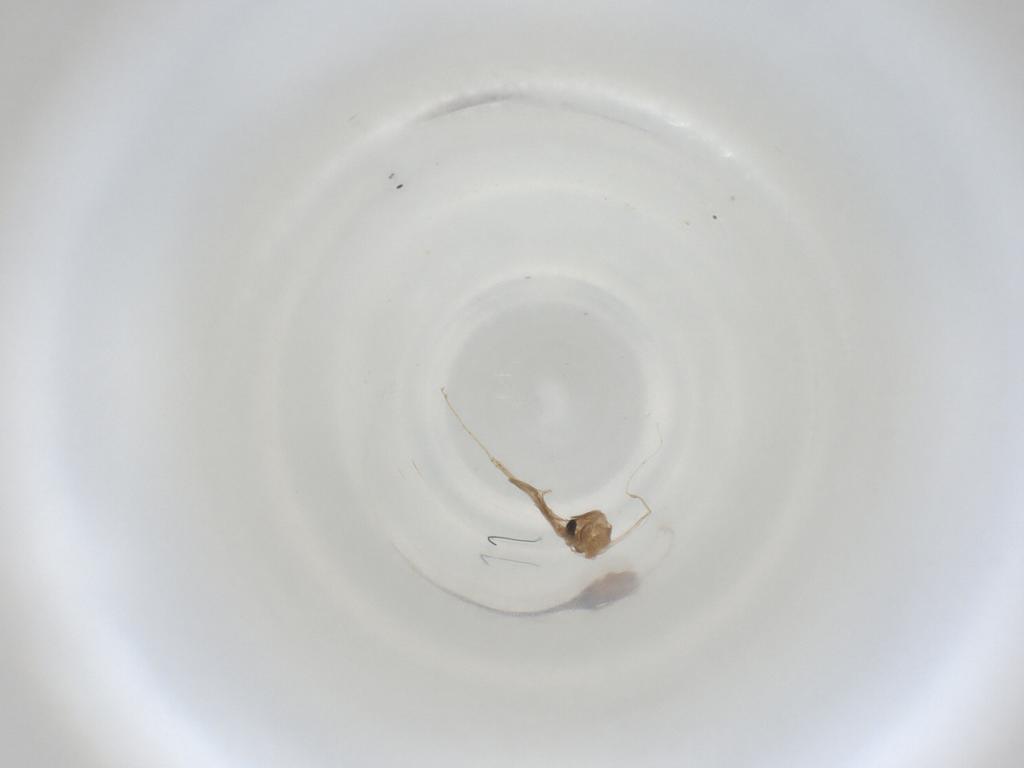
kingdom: Animalia
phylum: Arthropoda
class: Insecta
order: Diptera
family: Cecidomyiidae
